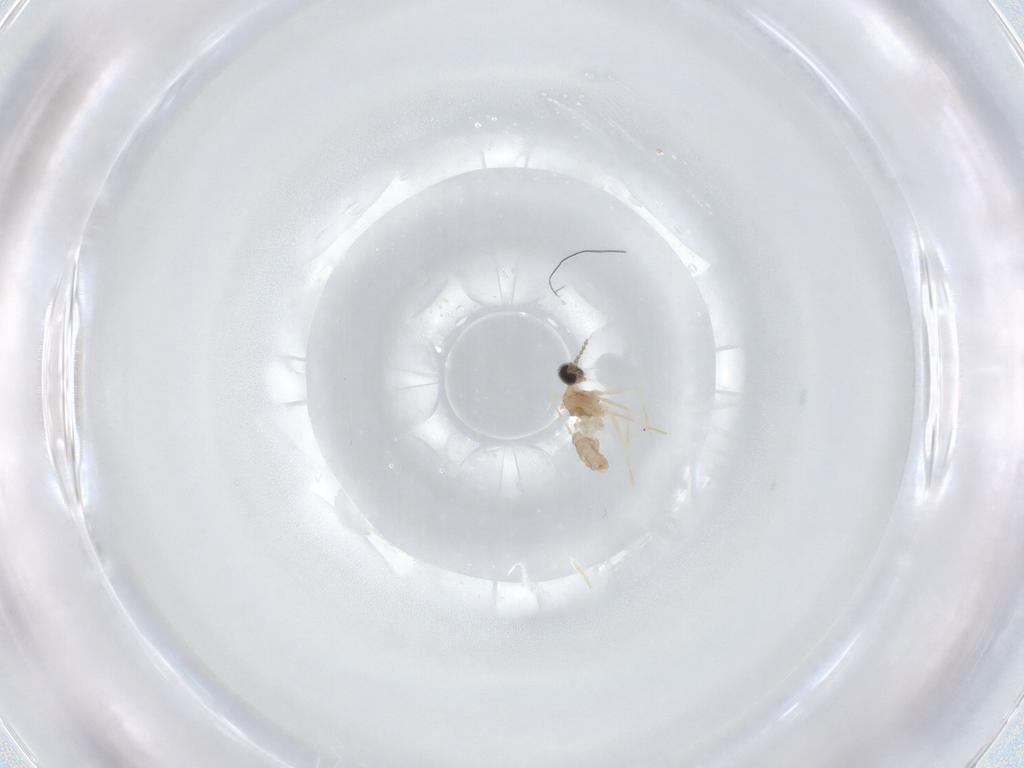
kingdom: Animalia
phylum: Arthropoda
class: Insecta
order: Diptera
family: Cecidomyiidae
